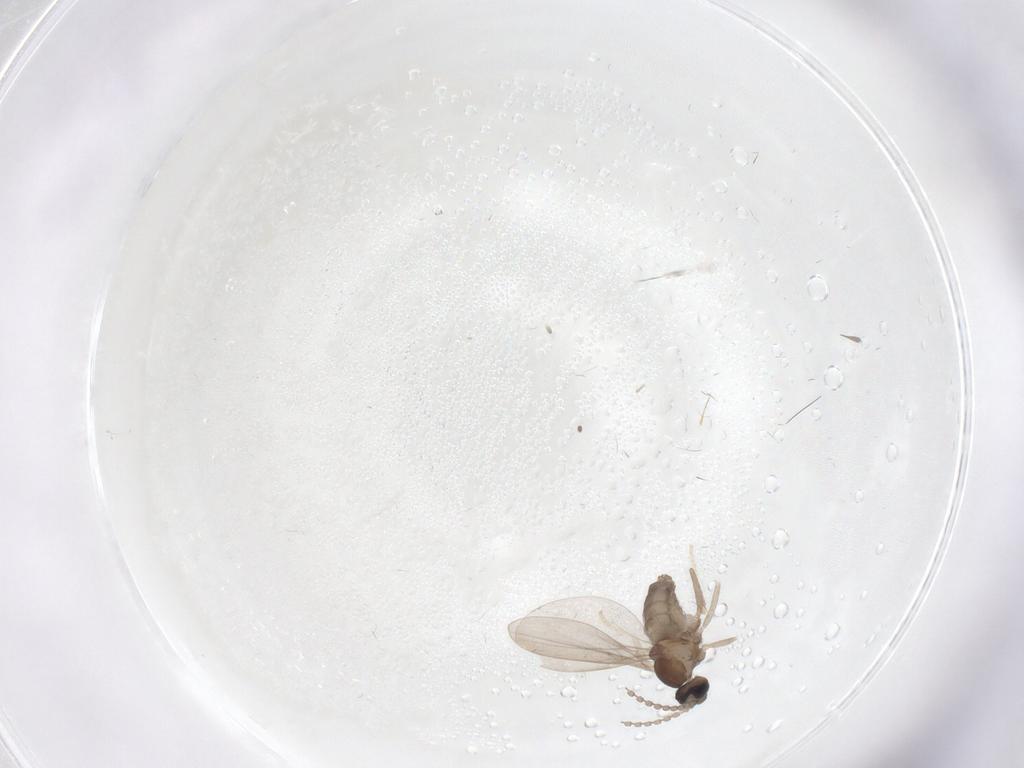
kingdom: Animalia
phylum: Arthropoda
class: Insecta
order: Diptera
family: Cecidomyiidae
